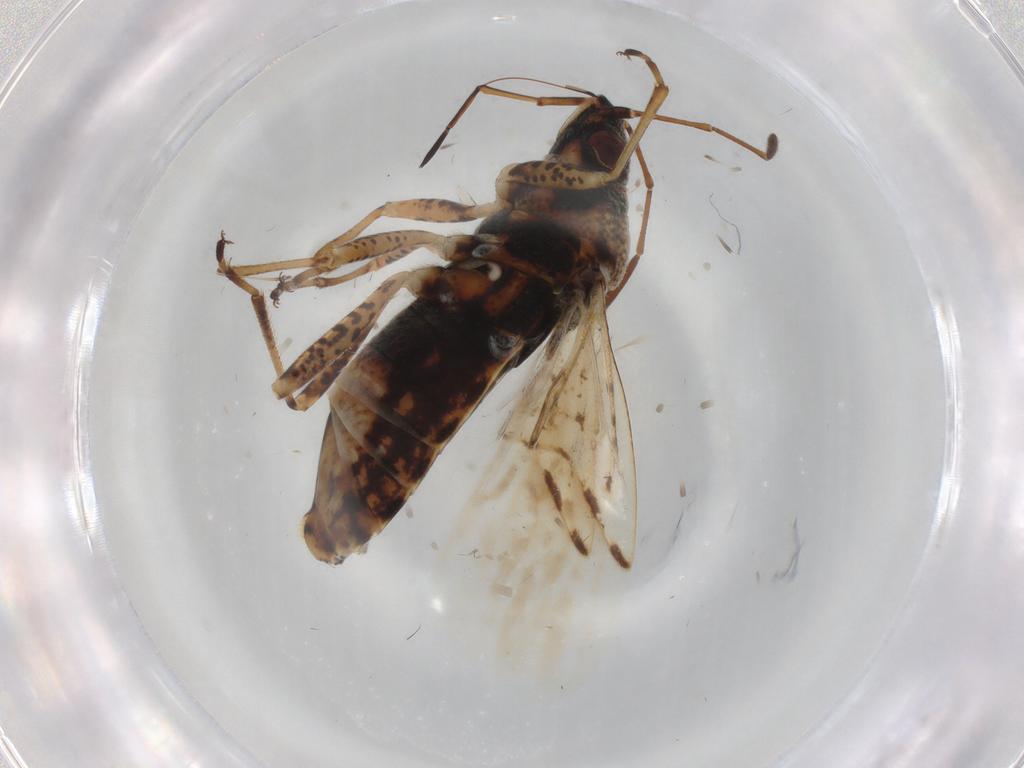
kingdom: Animalia
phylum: Arthropoda
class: Insecta
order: Hemiptera
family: Lygaeidae
